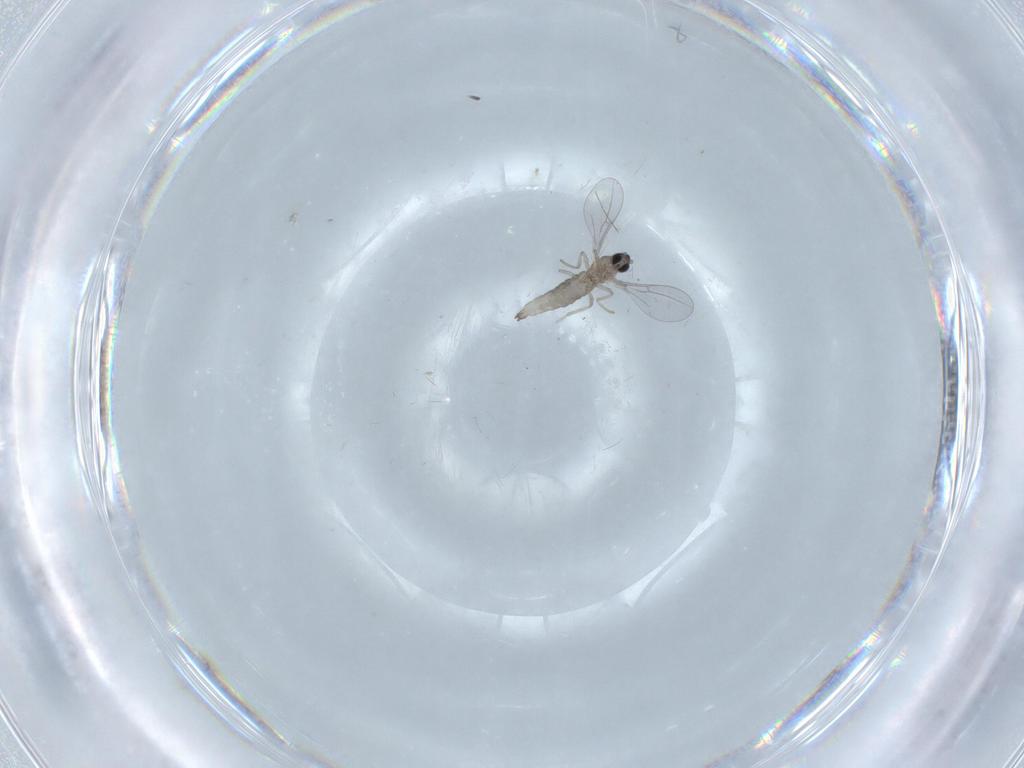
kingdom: Animalia
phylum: Arthropoda
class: Insecta
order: Diptera
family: Cecidomyiidae
